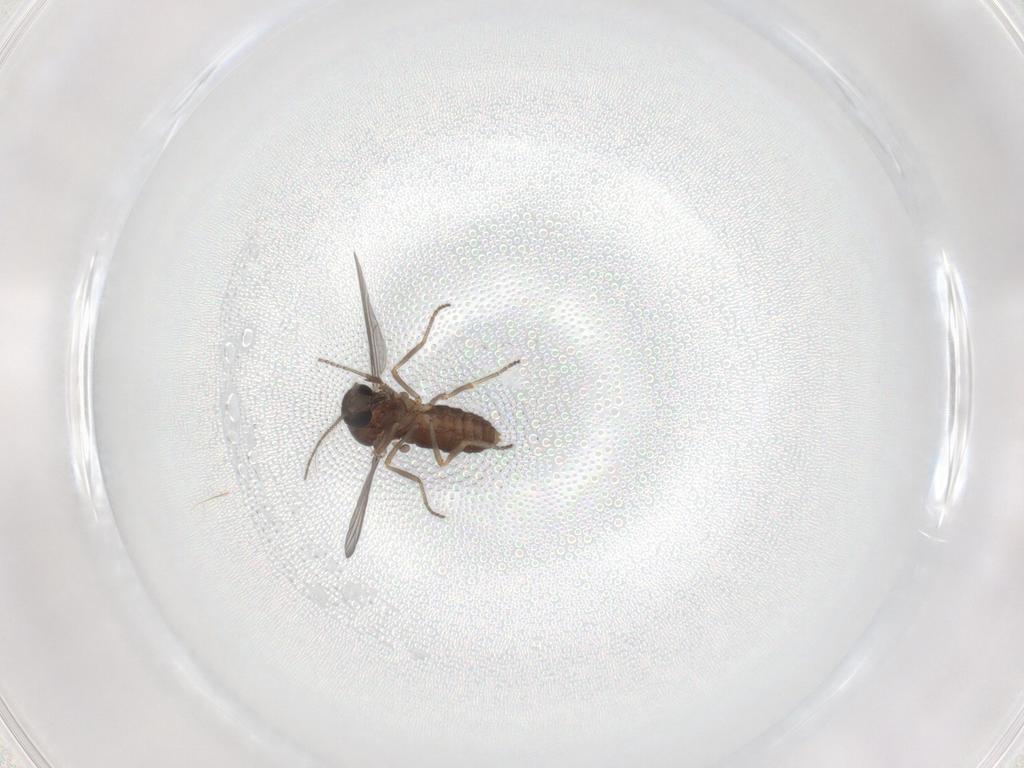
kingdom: Animalia
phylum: Arthropoda
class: Insecta
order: Diptera
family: Ceratopogonidae
